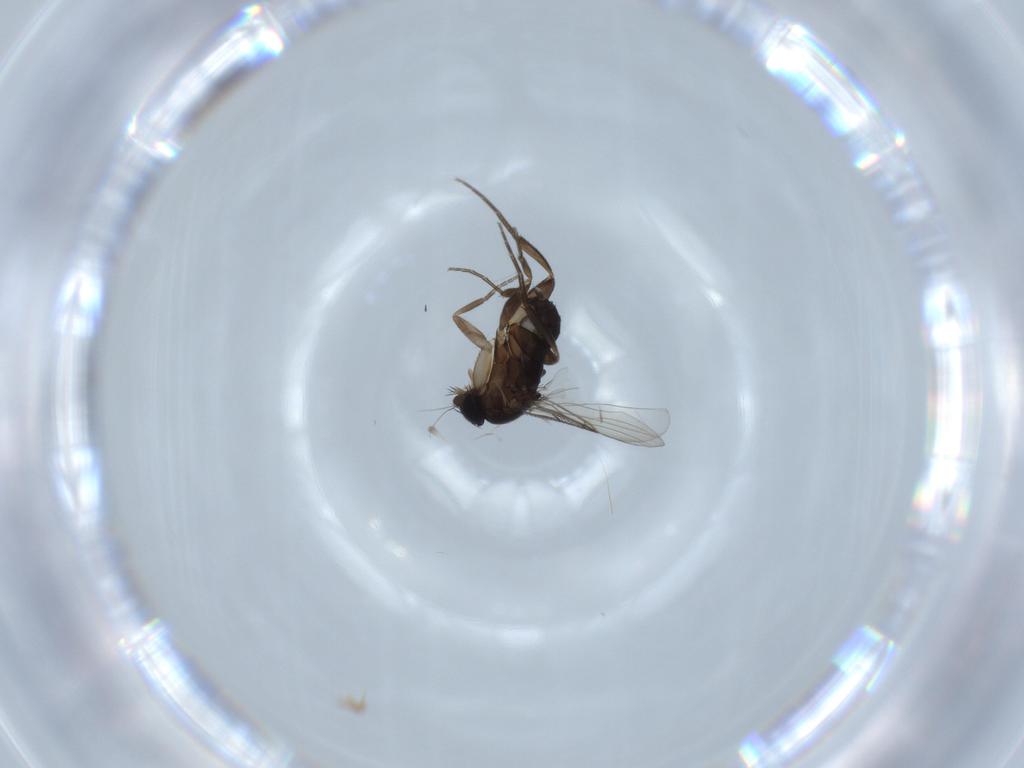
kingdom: Animalia
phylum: Arthropoda
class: Insecta
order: Diptera
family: Phoridae
